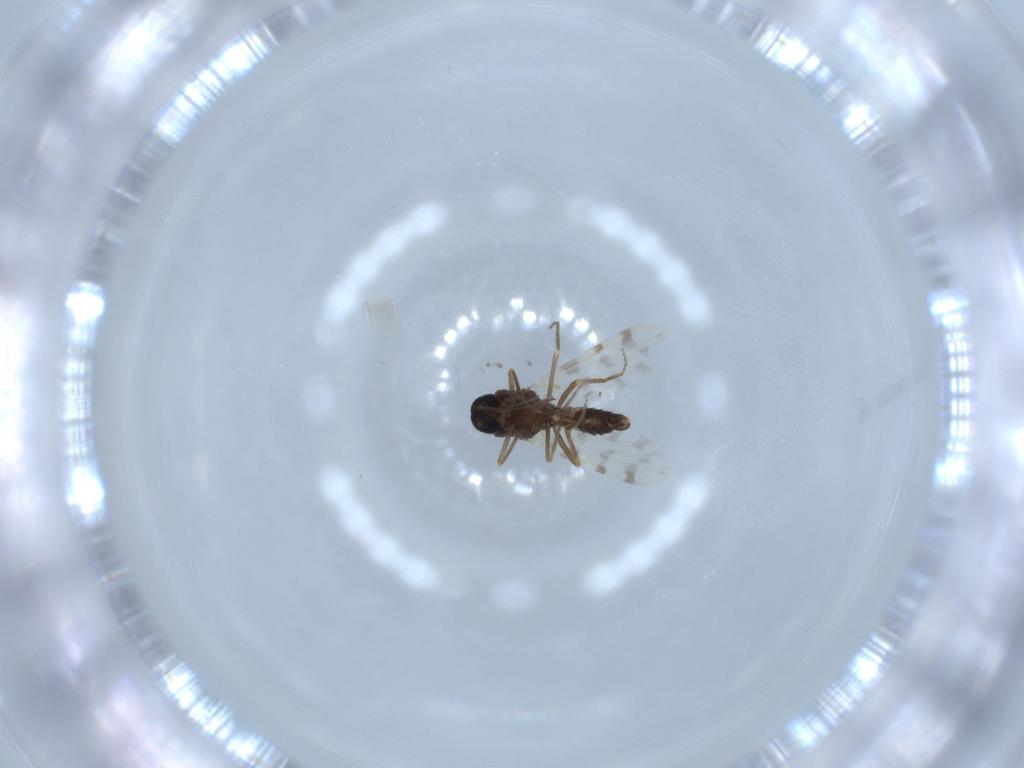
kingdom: Animalia
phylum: Arthropoda
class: Insecta
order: Diptera
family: Ceratopogonidae
